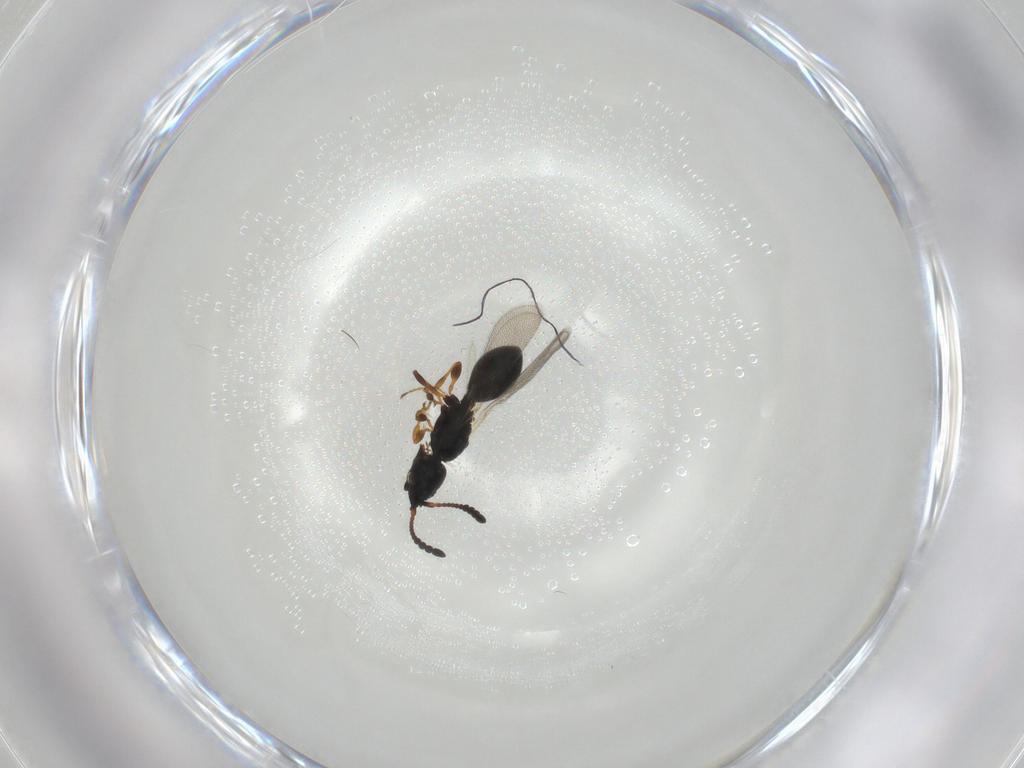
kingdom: Animalia
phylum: Arthropoda
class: Insecta
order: Hymenoptera
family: Diapriidae
